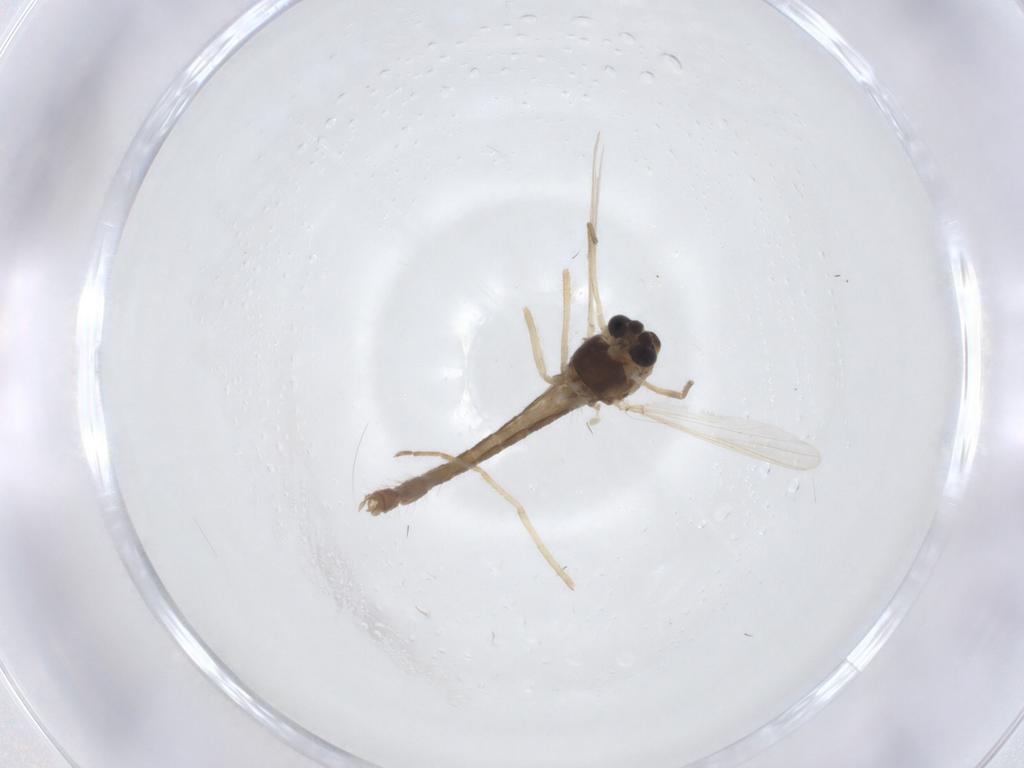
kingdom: Animalia
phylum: Arthropoda
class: Insecta
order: Diptera
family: Chironomidae
